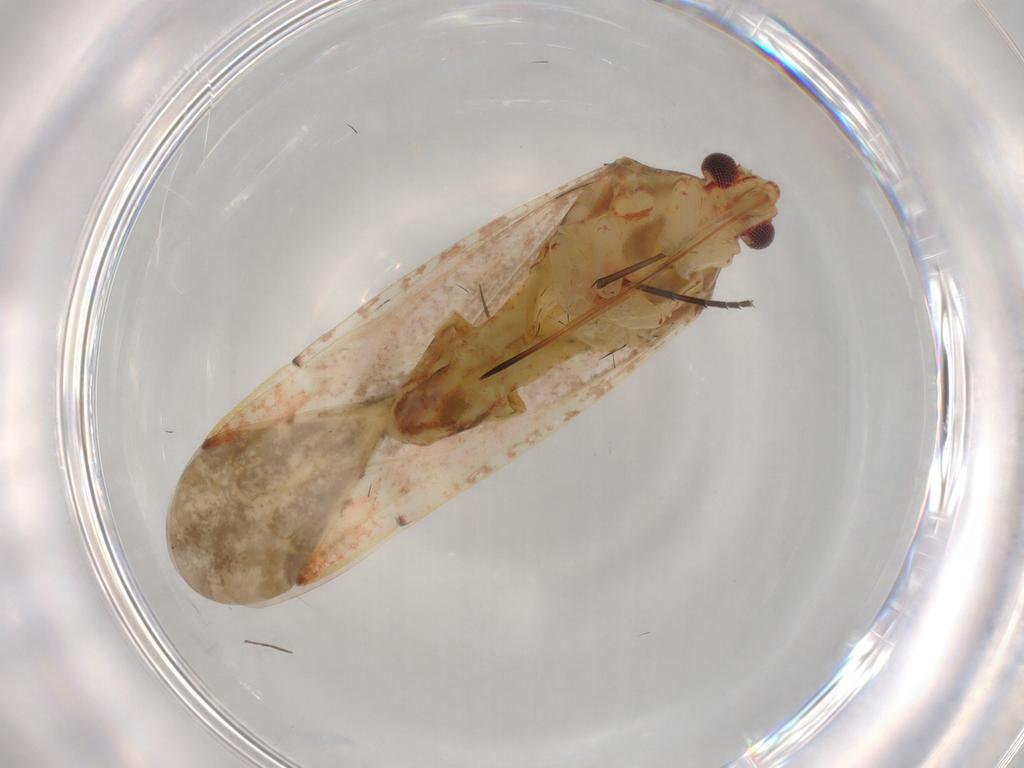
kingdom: Animalia
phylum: Arthropoda
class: Insecta
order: Hemiptera
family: Miridae
